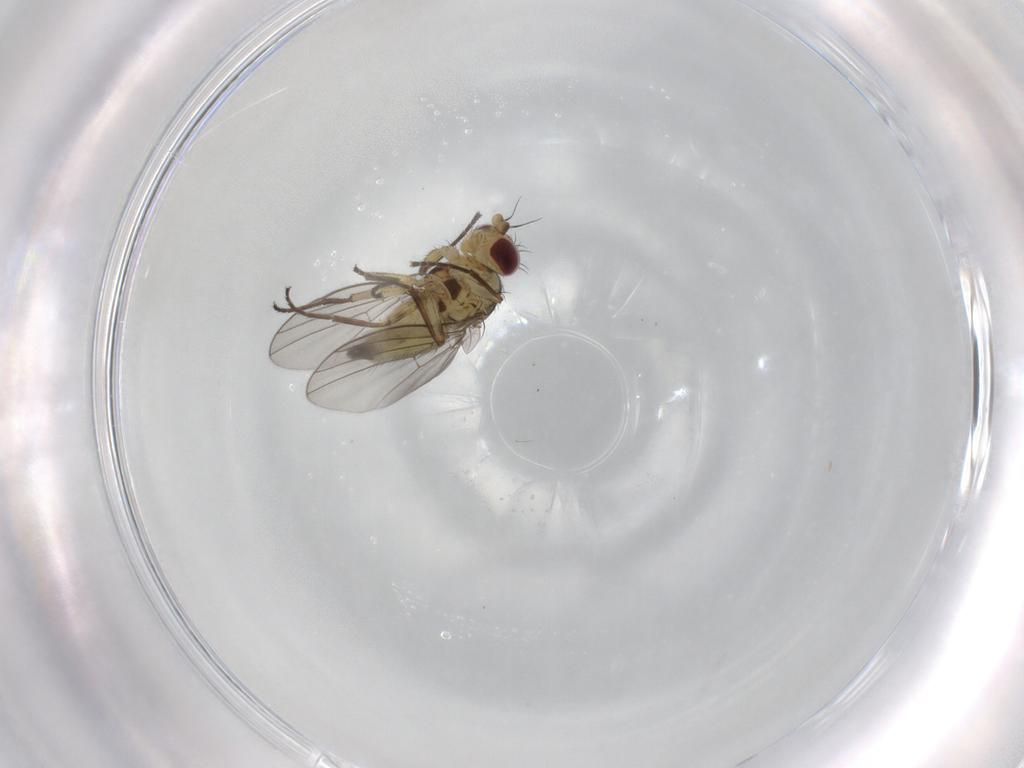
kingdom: Animalia
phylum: Arthropoda
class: Insecta
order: Diptera
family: Agromyzidae
